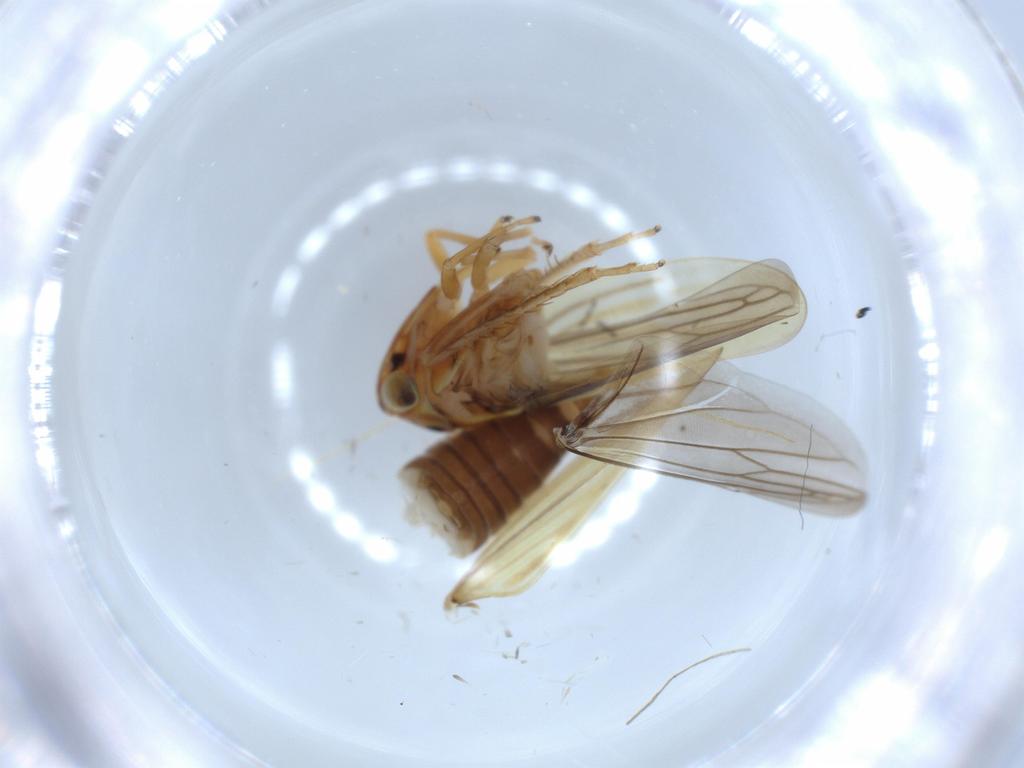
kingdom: Animalia
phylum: Arthropoda
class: Insecta
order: Hemiptera
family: Cicadellidae
